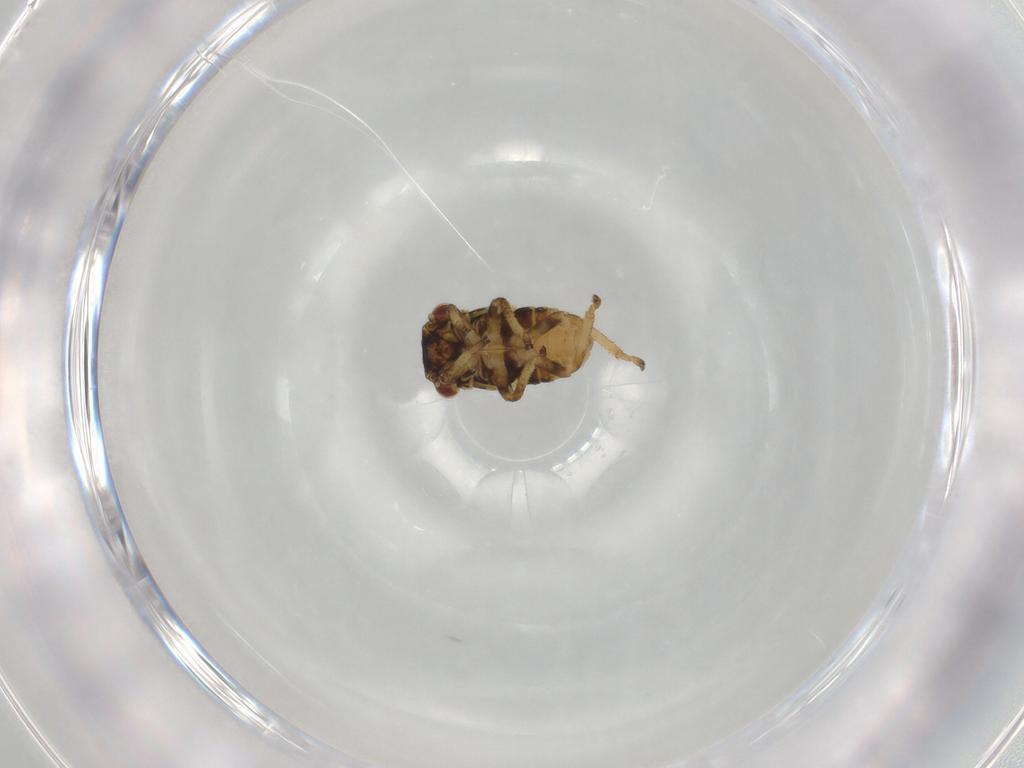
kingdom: Animalia
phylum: Arthropoda
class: Insecta
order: Hemiptera
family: Cicadellidae
